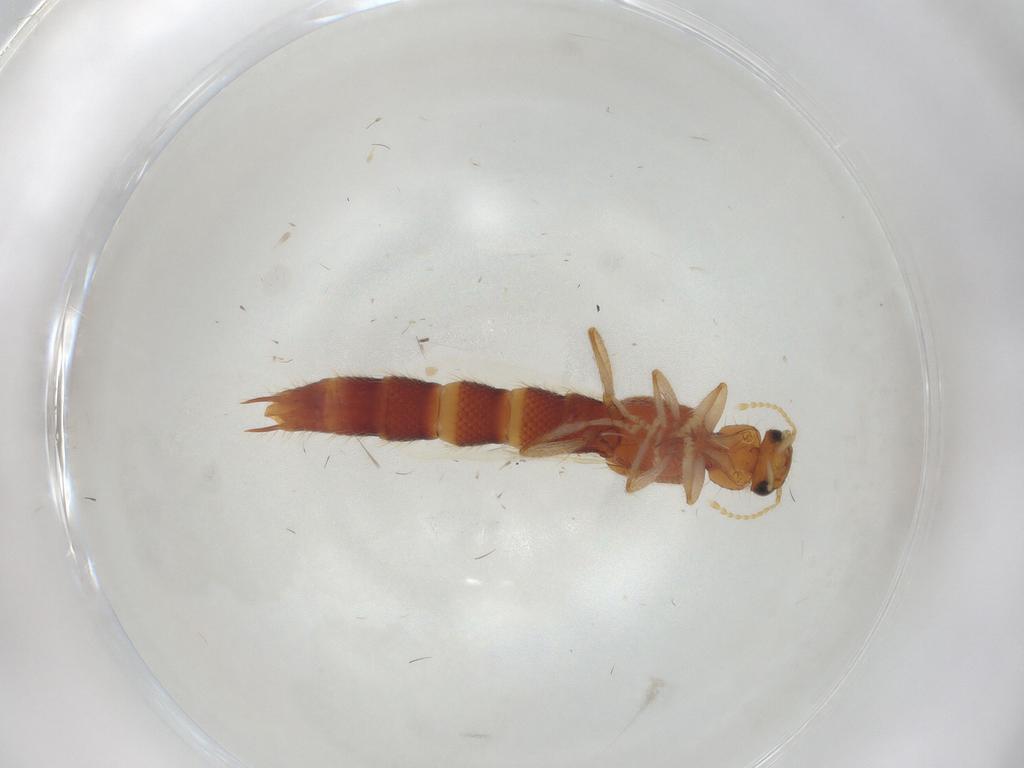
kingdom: Animalia
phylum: Arthropoda
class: Insecta
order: Coleoptera
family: Staphylinidae
